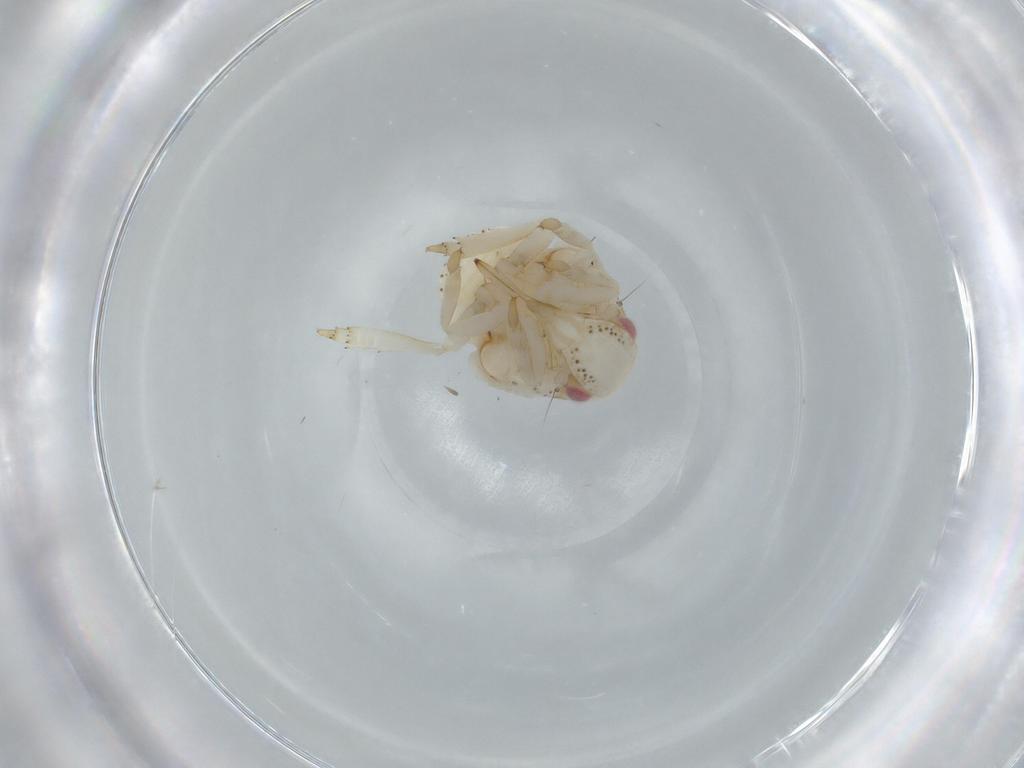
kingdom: Animalia
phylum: Arthropoda
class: Insecta
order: Hemiptera
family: Acanaloniidae
